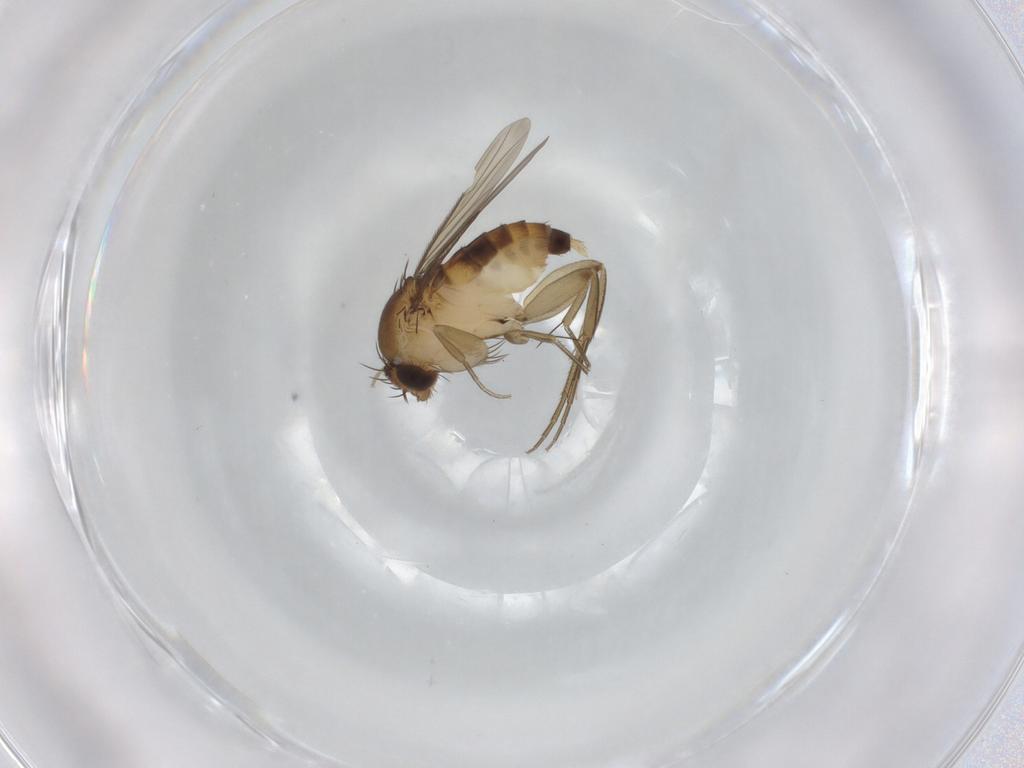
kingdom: Animalia
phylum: Arthropoda
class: Insecta
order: Diptera
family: Phoridae
